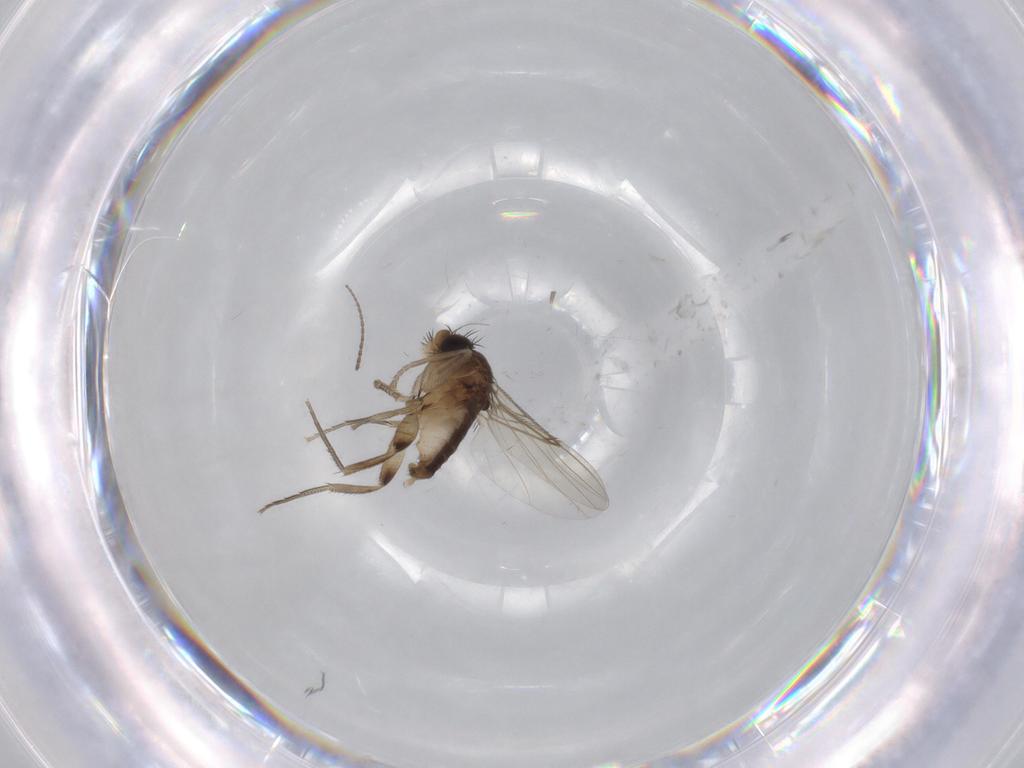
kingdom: Animalia
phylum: Arthropoda
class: Insecta
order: Diptera
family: Phoridae
